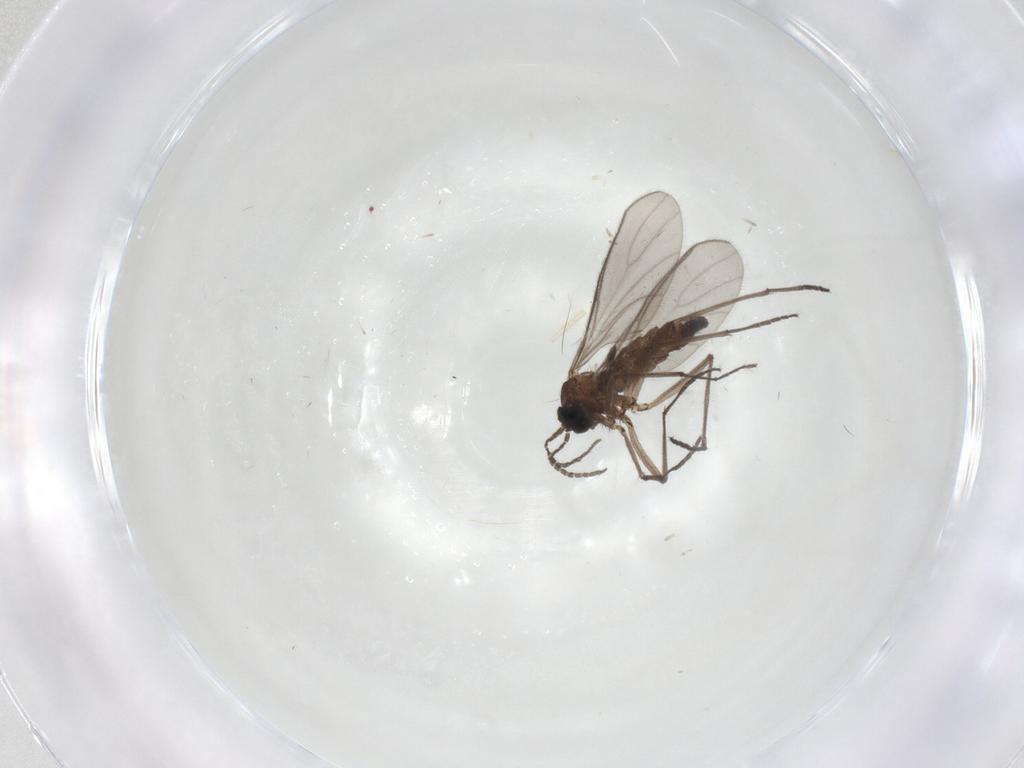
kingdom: Animalia
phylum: Arthropoda
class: Insecta
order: Diptera
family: Sciaridae
